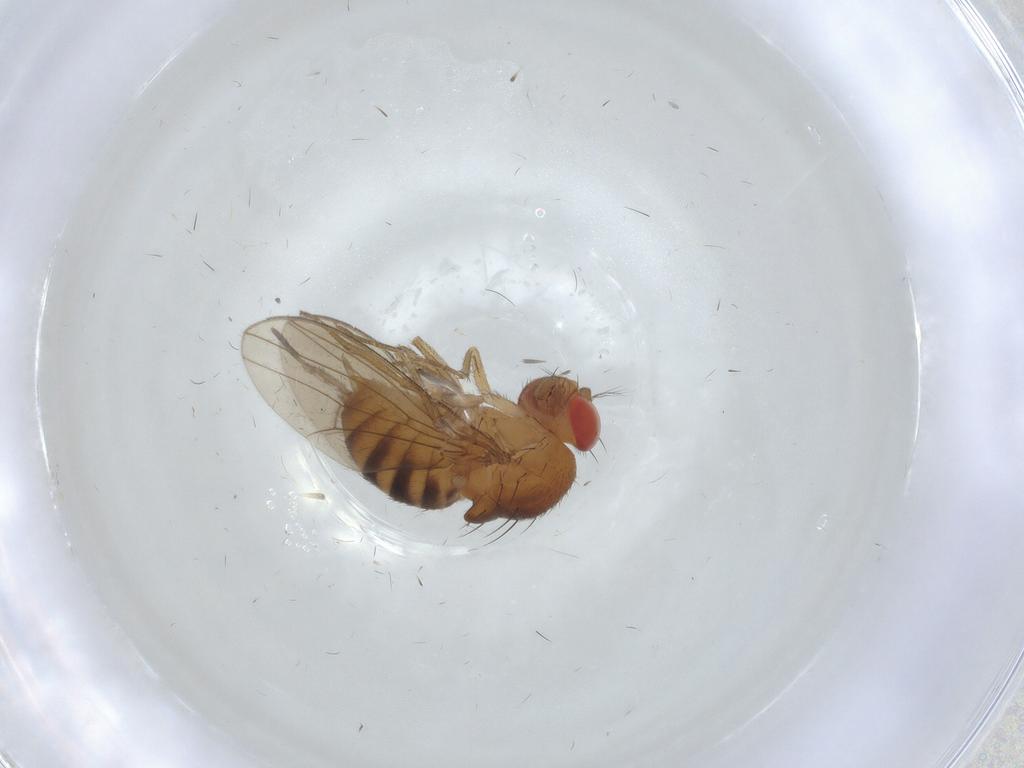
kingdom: Animalia
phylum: Arthropoda
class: Insecta
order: Diptera
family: Drosophilidae
